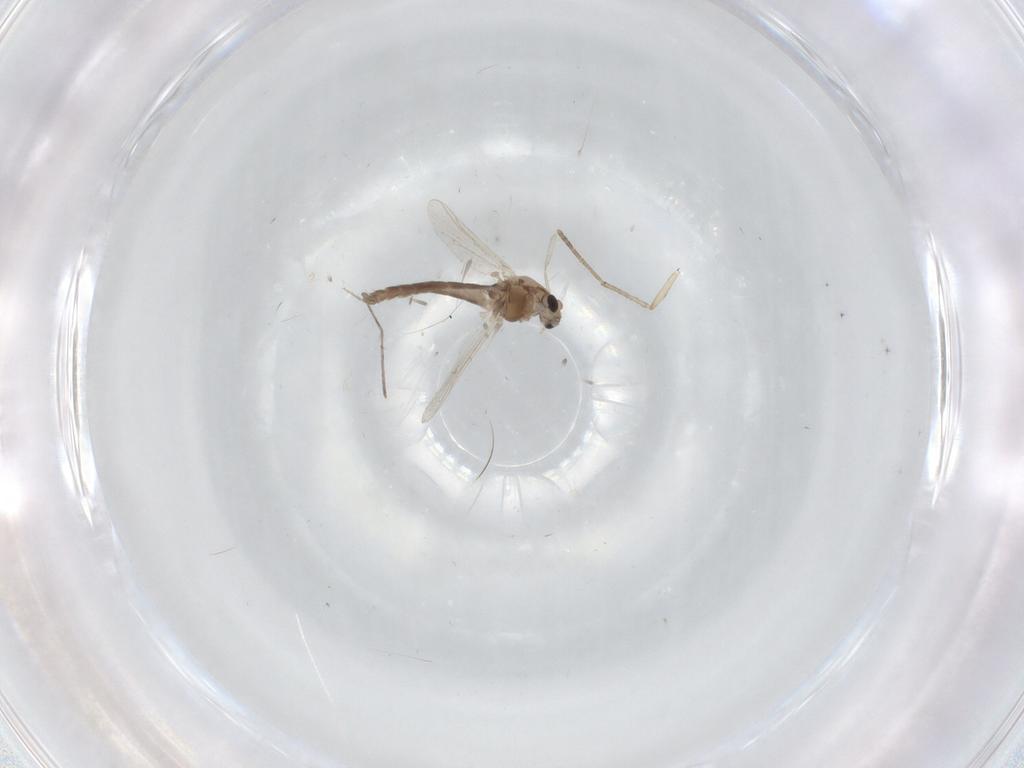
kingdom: Animalia
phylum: Arthropoda
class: Insecta
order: Diptera
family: Chironomidae
